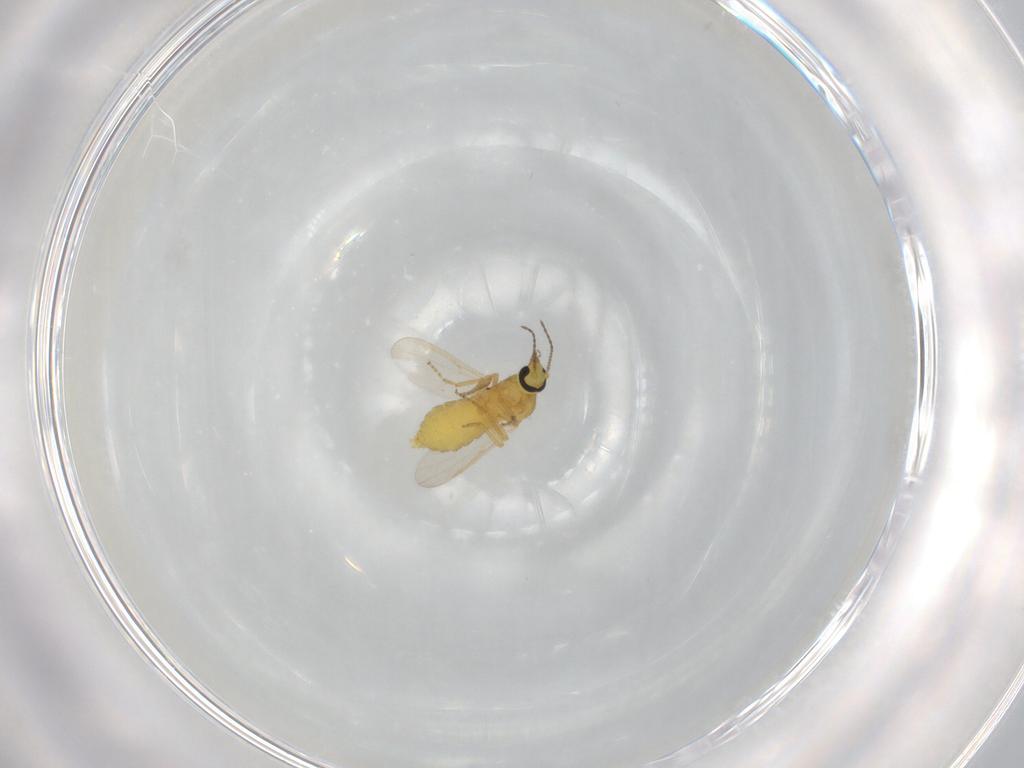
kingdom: Animalia
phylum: Arthropoda
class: Insecta
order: Diptera
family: Ceratopogonidae
